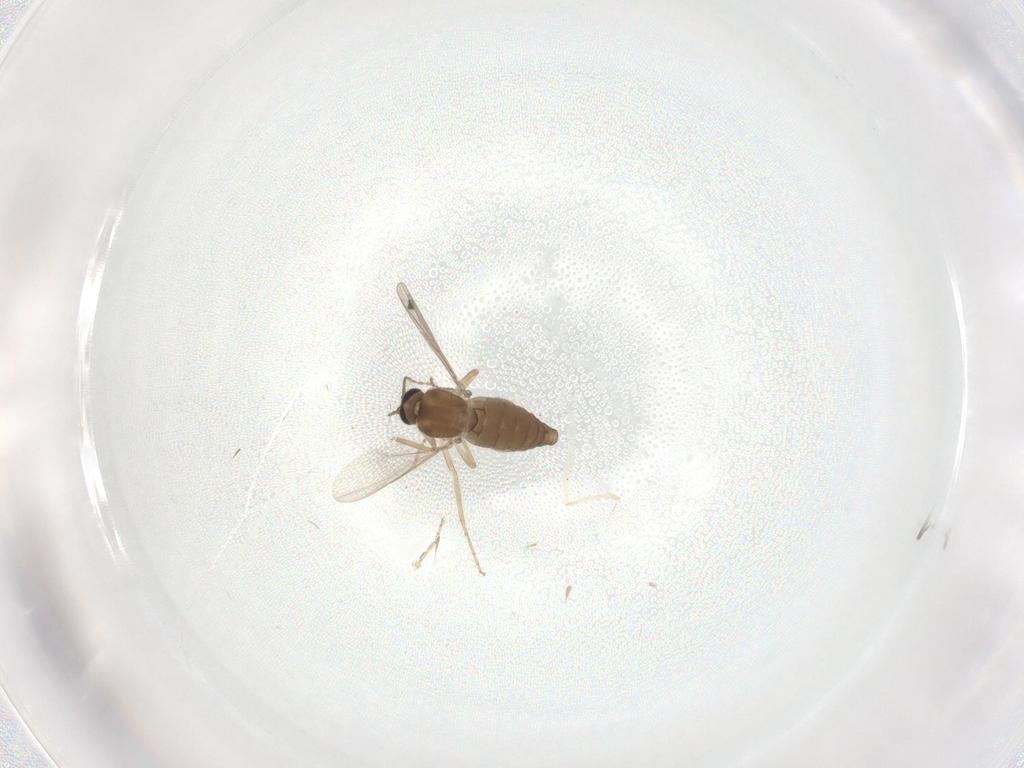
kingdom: Animalia
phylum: Arthropoda
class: Insecta
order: Diptera
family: Ceratopogonidae
